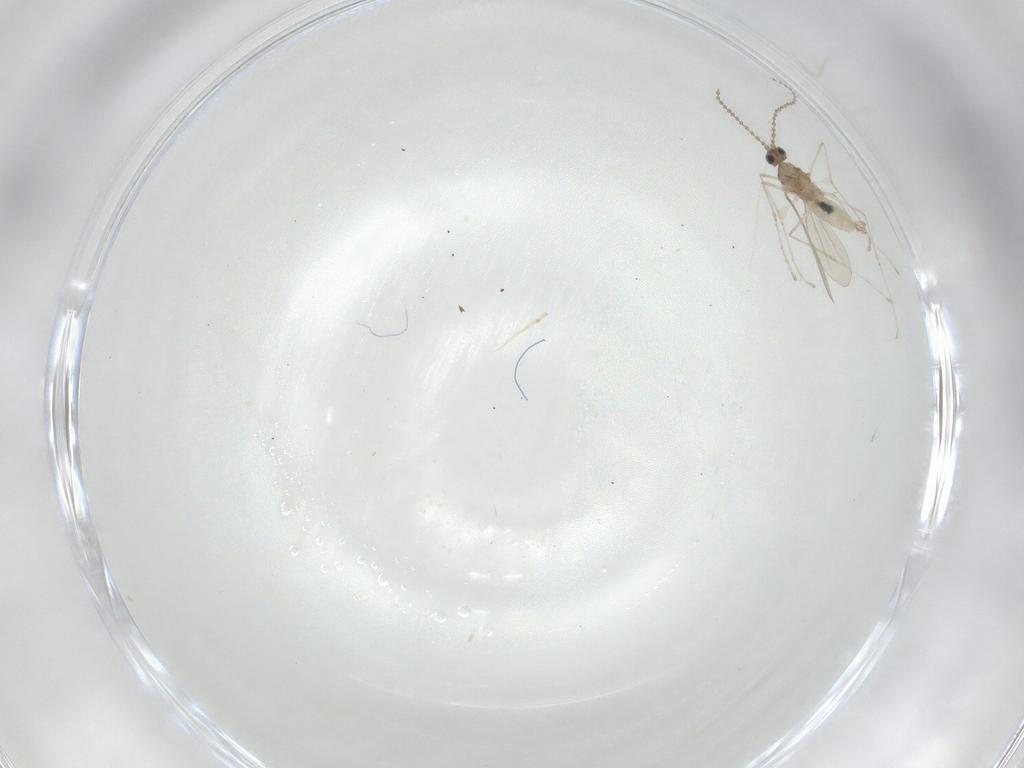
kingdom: Animalia
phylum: Arthropoda
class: Insecta
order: Diptera
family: Cecidomyiidae
